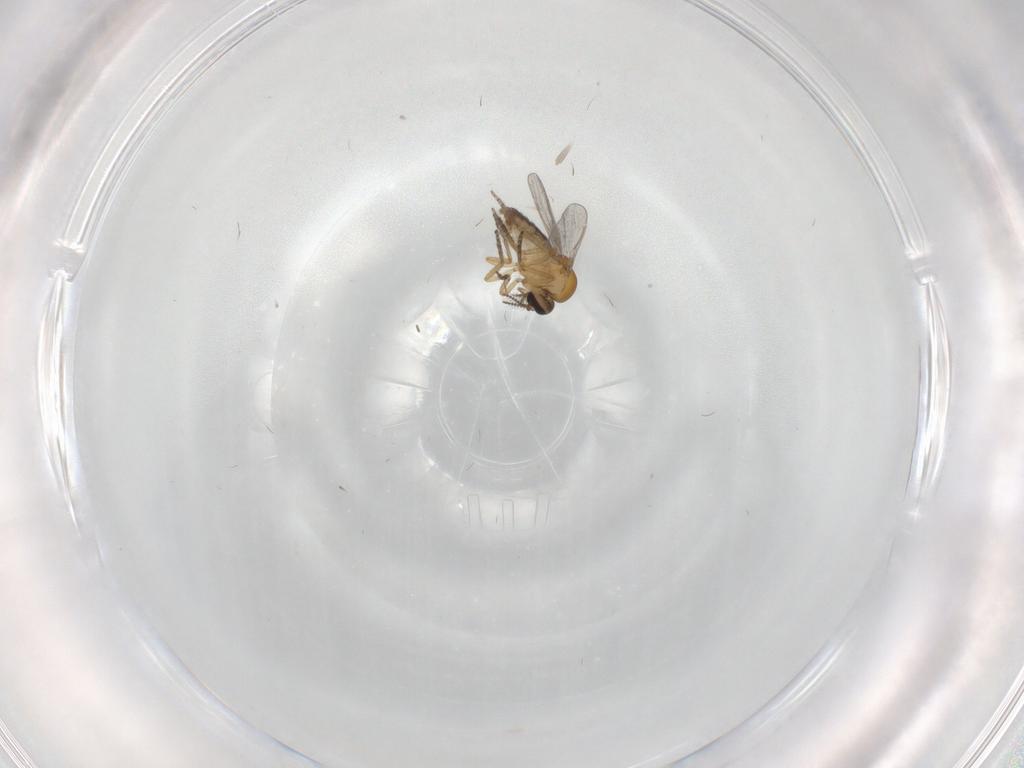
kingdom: Animalia
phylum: Arthropoda
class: Insecta
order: Diptera
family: Ceratopogonidae
